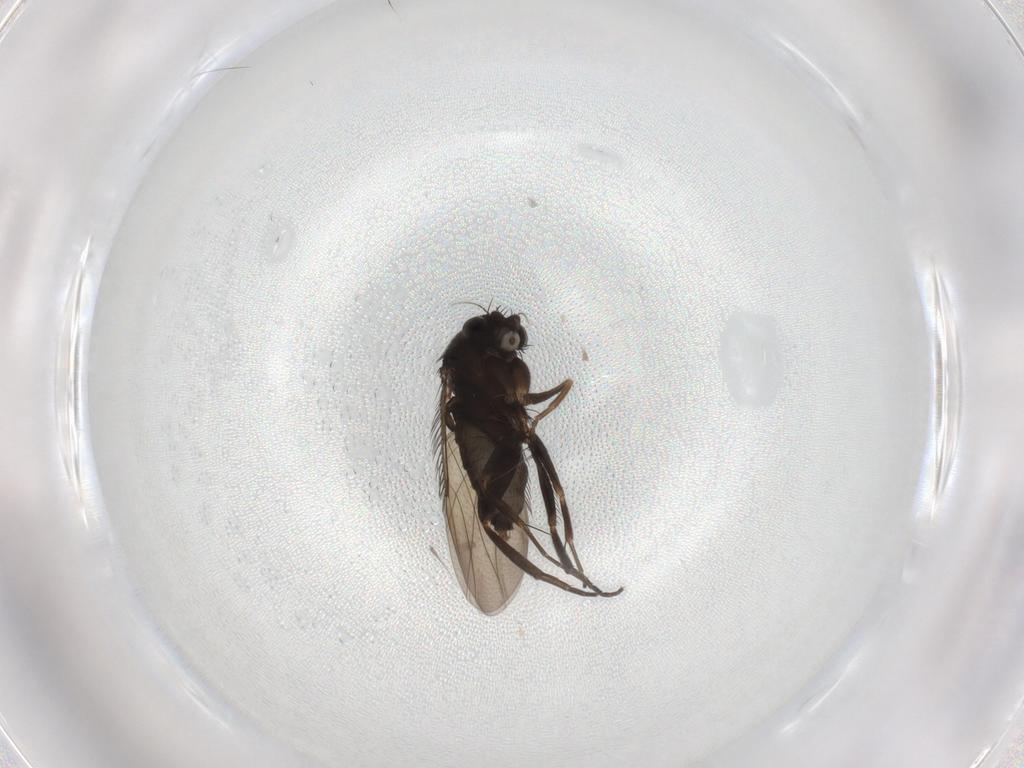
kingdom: Animalia
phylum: Arthropoda
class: Insecta
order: Diptera
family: Phoridae
